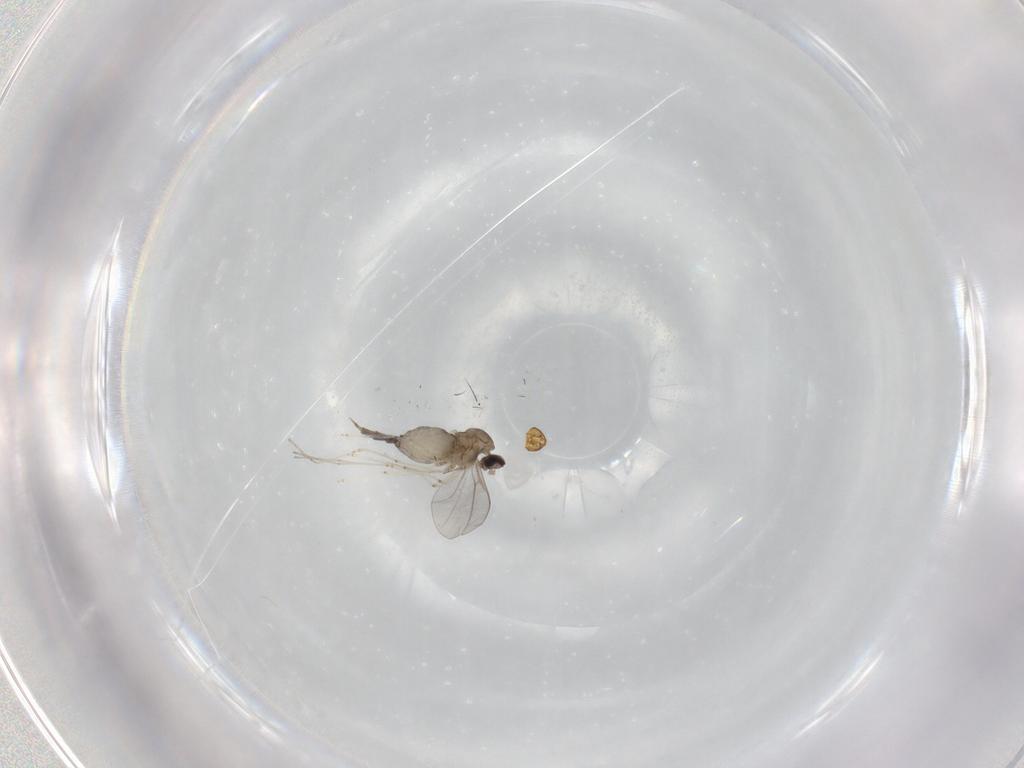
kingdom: Animalia
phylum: Arthropoda
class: Insecta
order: Diptera
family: Cecidomyiidae
